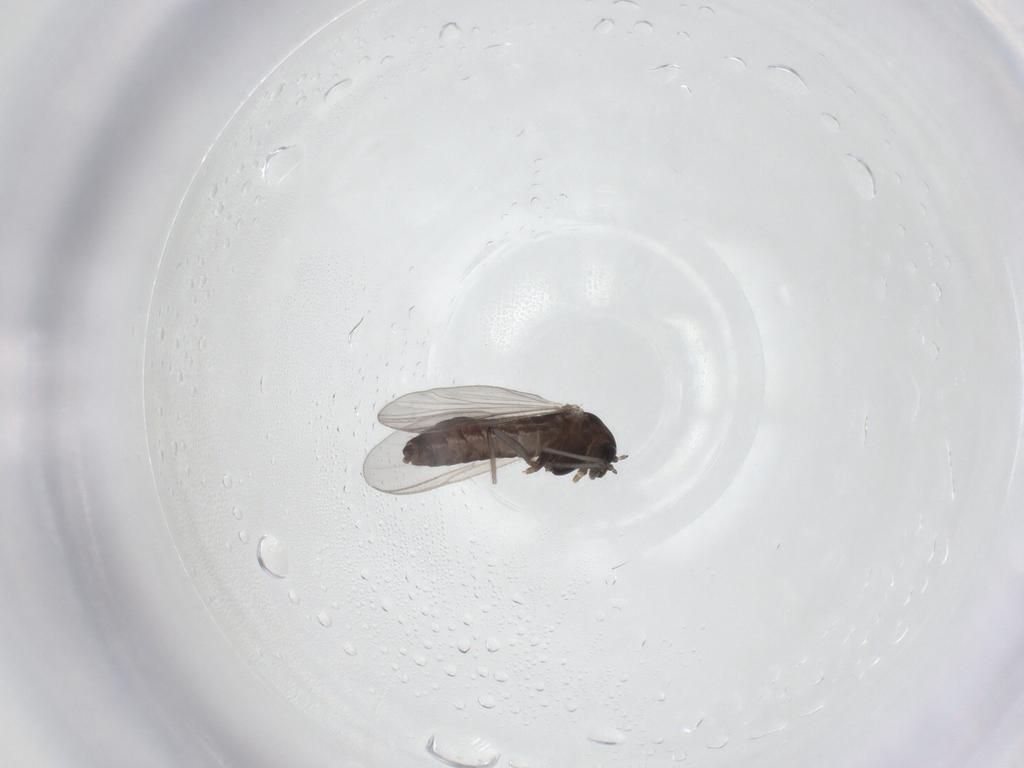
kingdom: Animalia
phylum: Arthropoda
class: Insecta
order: Diptera
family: Chironomidae
